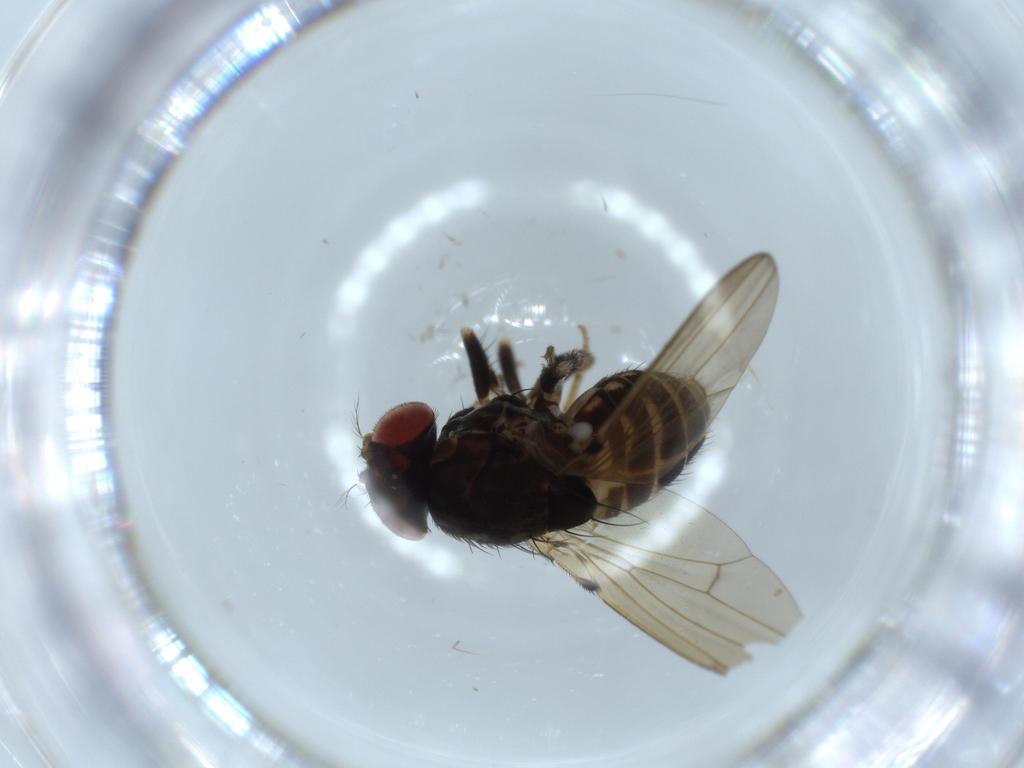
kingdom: Animalia
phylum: Arthropoda
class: Insecta
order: Diptera
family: Drosophilidae
